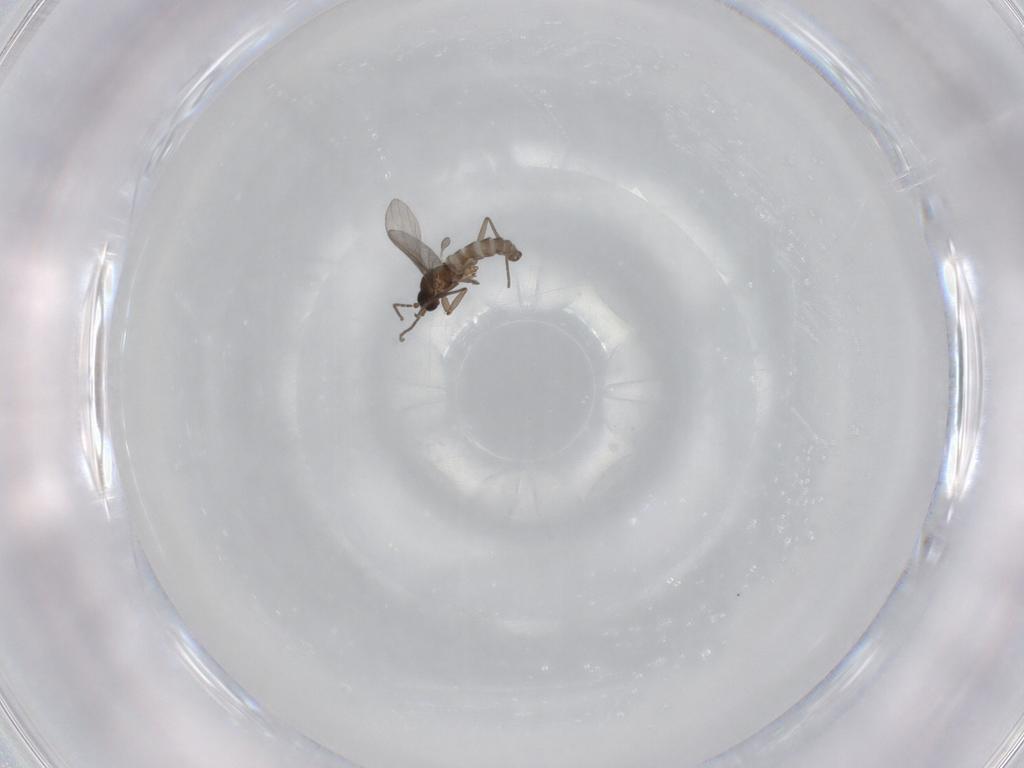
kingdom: Animalia
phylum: Arthropoda
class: Insecta
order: Diptera
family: Sciaridae
